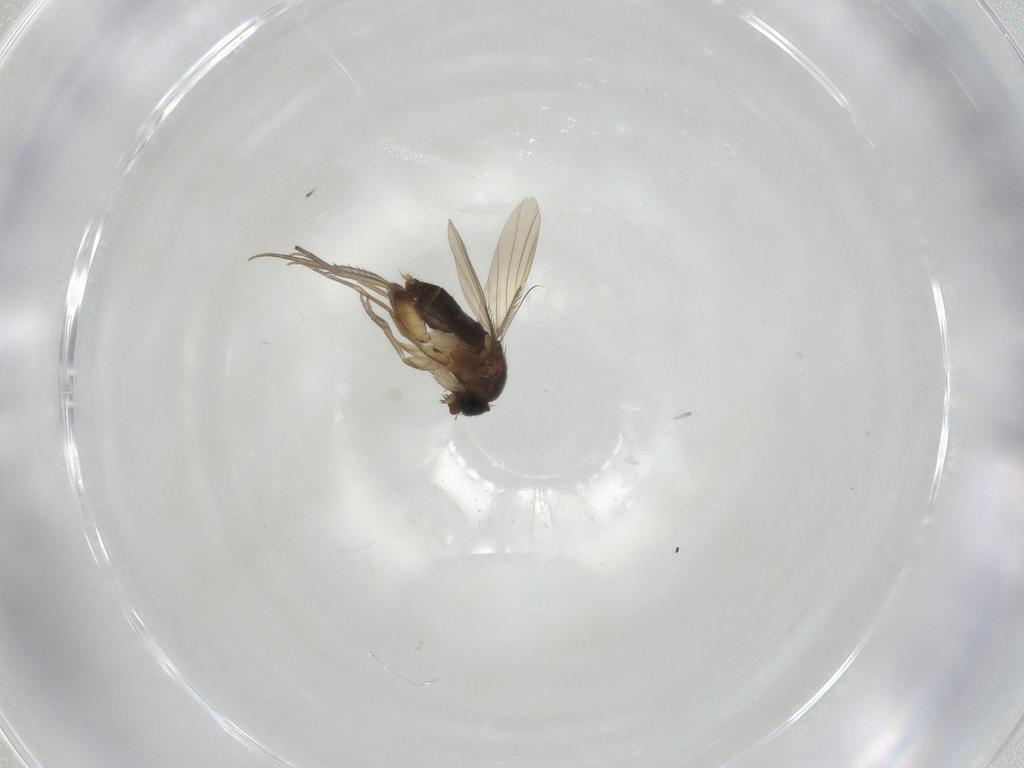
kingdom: Animalia
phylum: Arthropoda
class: Insecta
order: Diptera
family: Phoridae
